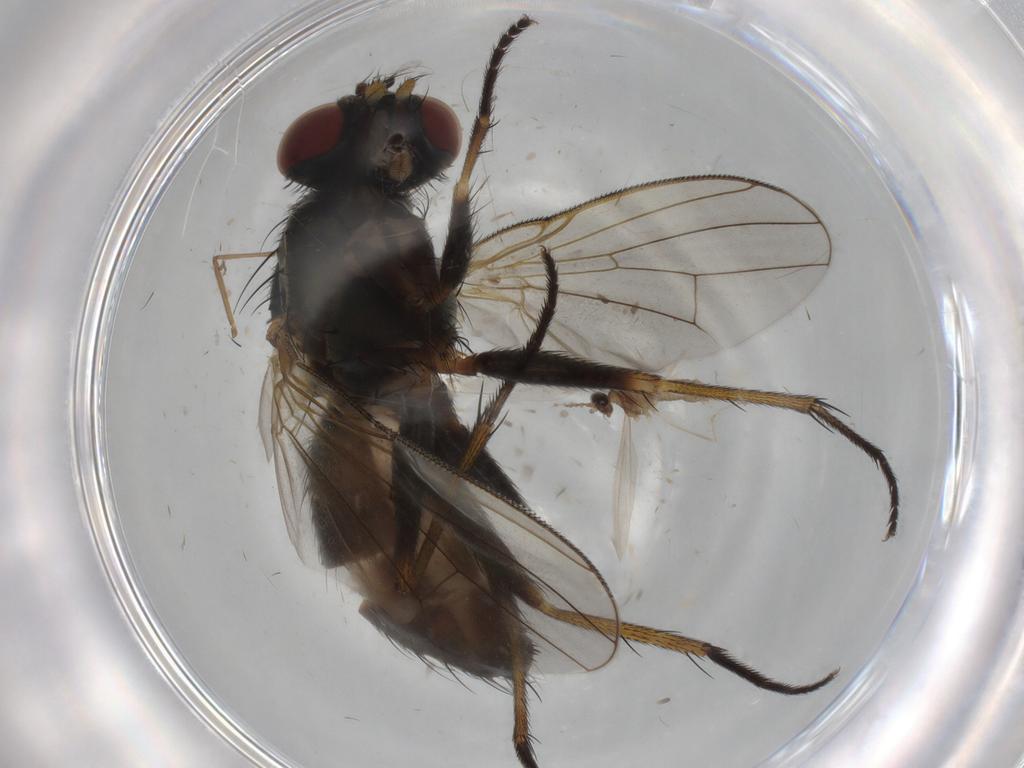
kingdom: Animalia
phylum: Arthropoda
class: Insecta
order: Diptera
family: Chironomidae
